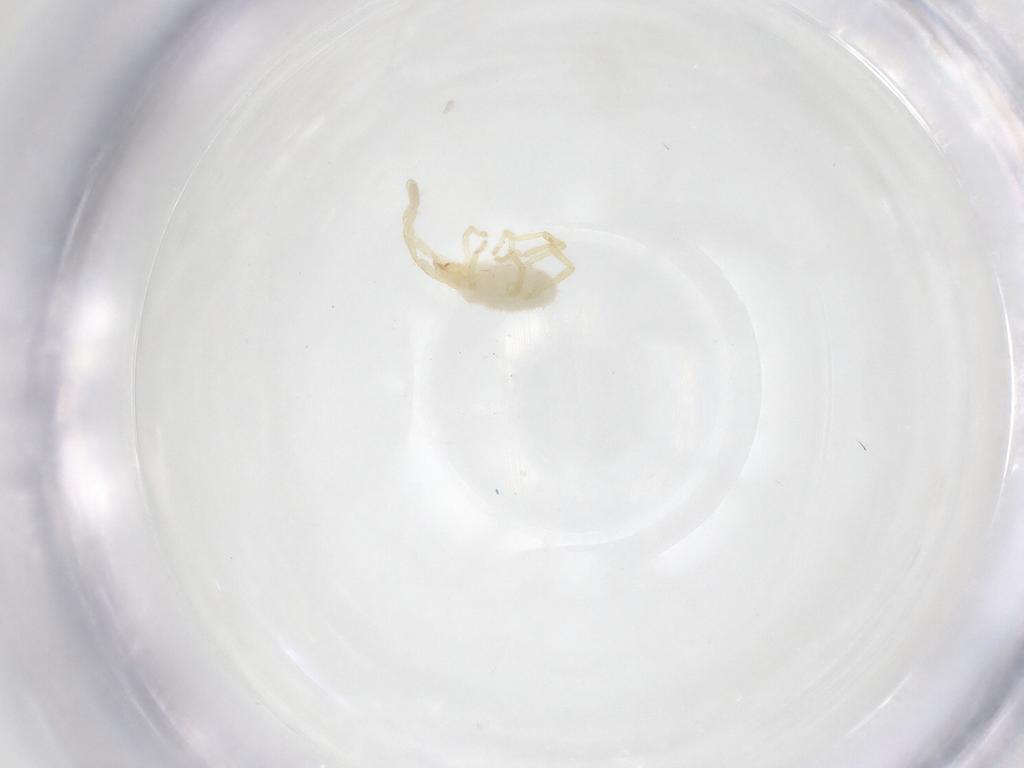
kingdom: Animalia
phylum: Arthropoda
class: Arachnida
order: Trombidiformes
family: Erythraeidae
